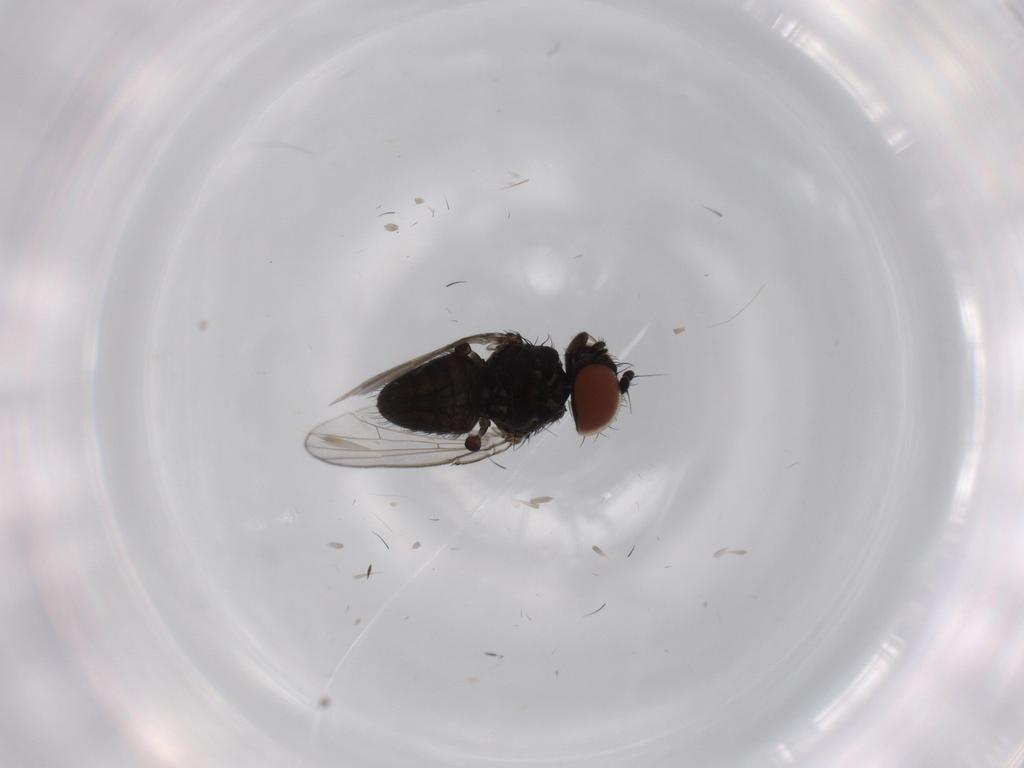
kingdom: Animalia
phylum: Arthropoda
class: Insecta
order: Diptera
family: Milichiidae
